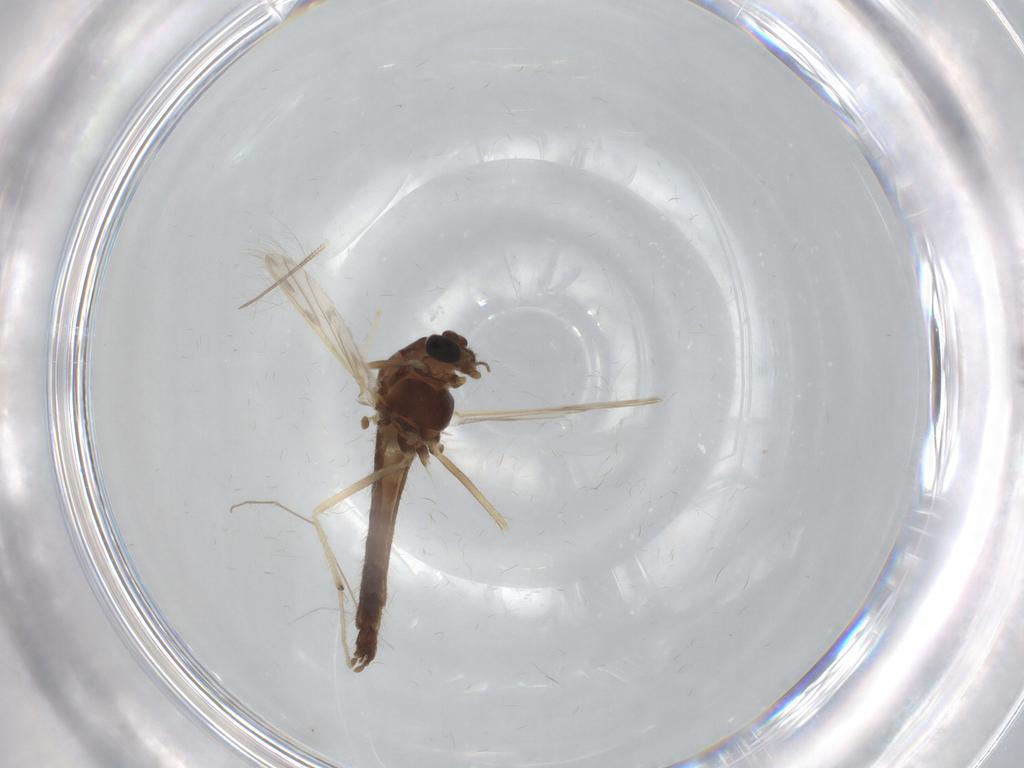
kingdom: Animalia
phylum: Arthropoda
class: Insecta
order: Diptera
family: Chironomidae
